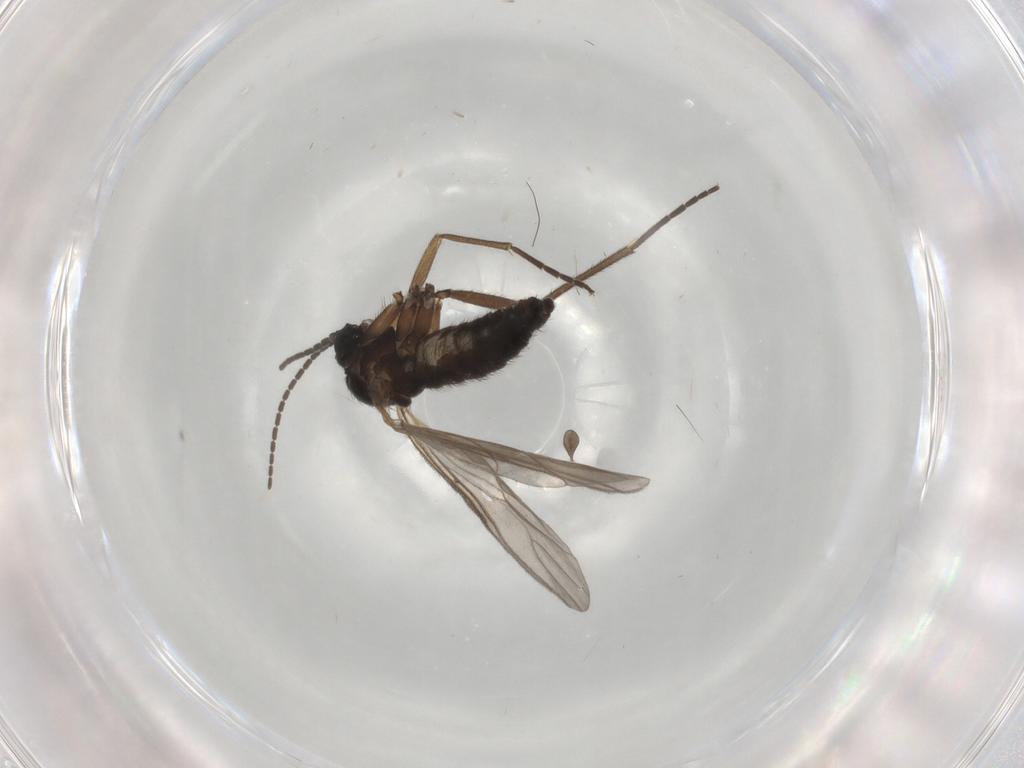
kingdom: Animalia
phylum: Arthropoda
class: Insecta
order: Diptera
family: Sciaridae
